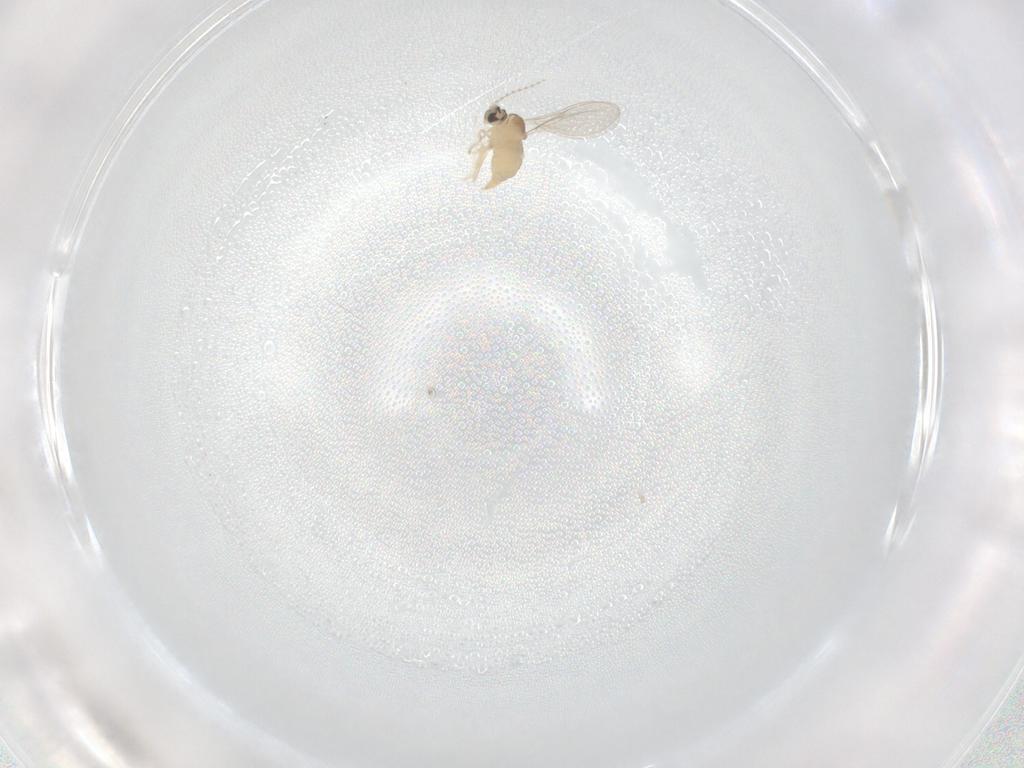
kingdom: Animalia
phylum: Arthropoda
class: Insecta
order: Diptera
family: Cecidomyiidae
